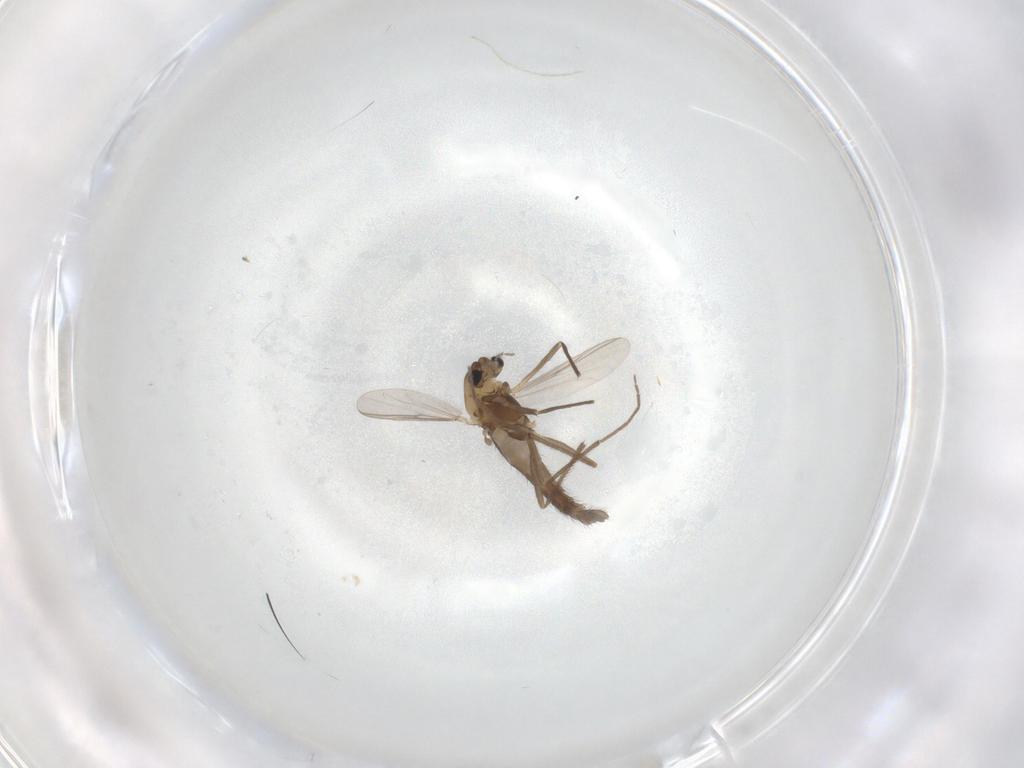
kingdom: Animalia
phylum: Arthropoda
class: Insecta
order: Diptera
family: Chironomidae
